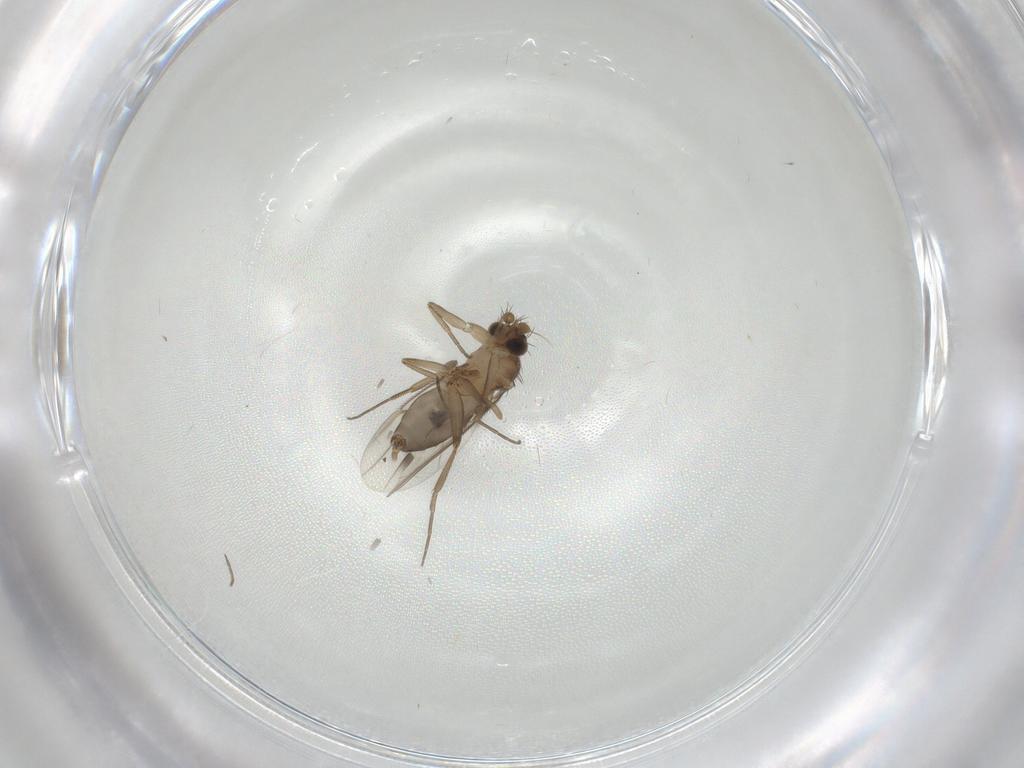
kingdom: Animalia
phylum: Arthropoda
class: Insecta
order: Diptera
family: Phoridae
